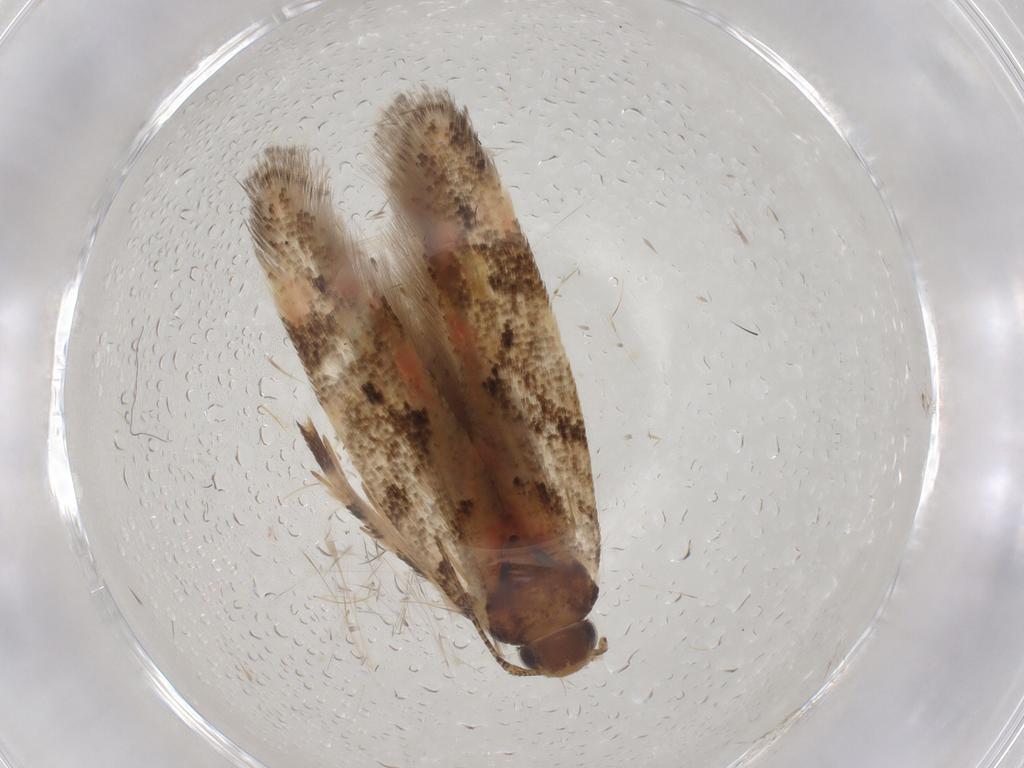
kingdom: Animalia
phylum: Arthropoda
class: Insecta
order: Lepidoptera
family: Gelechiidae
